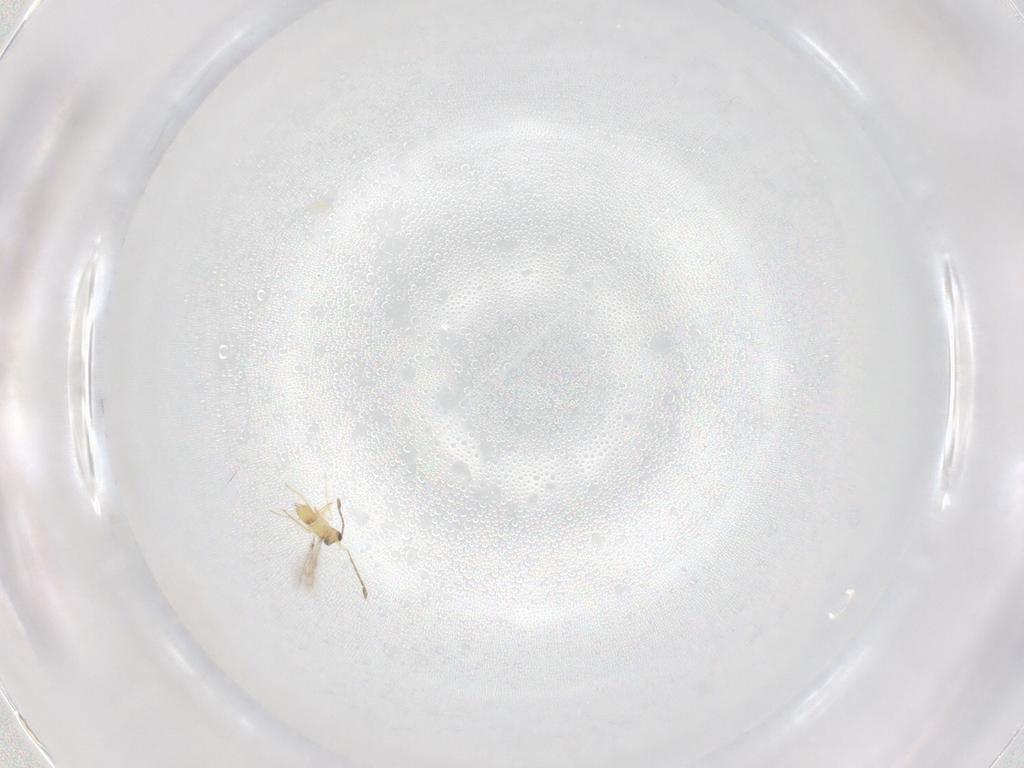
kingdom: Animalia
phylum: Arthropoda
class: Insecta
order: Hymenoptera
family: Mymaridae
